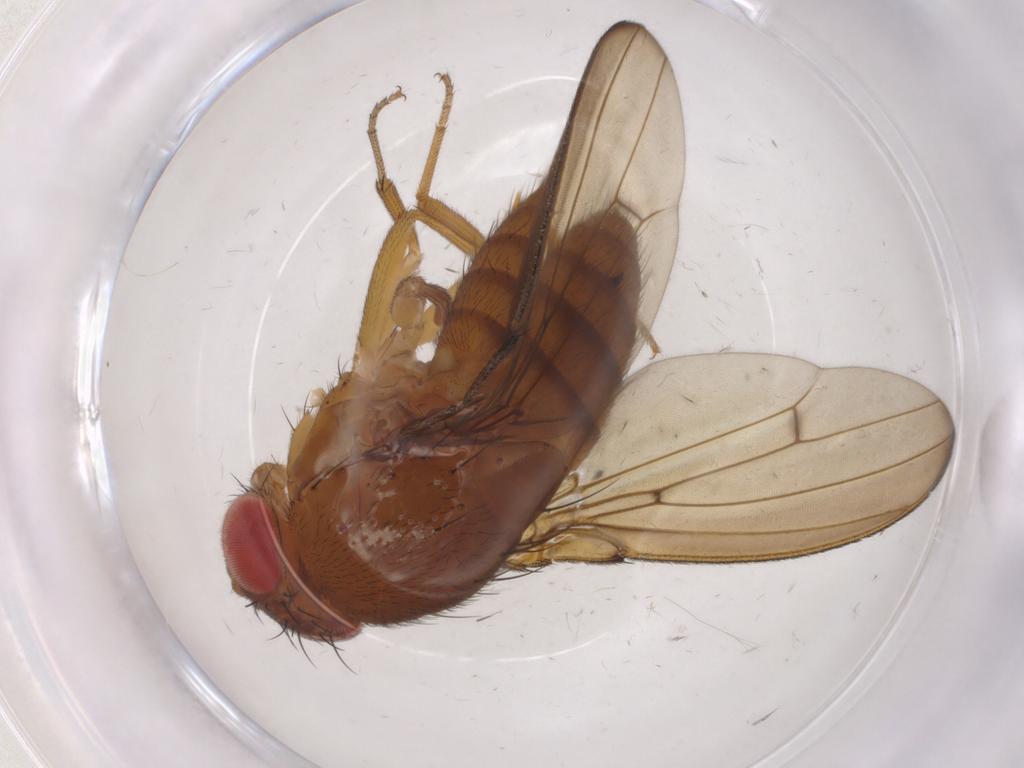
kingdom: Animalia
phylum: Arthropoda
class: Insecta
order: Diptera
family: Drosophilidae
